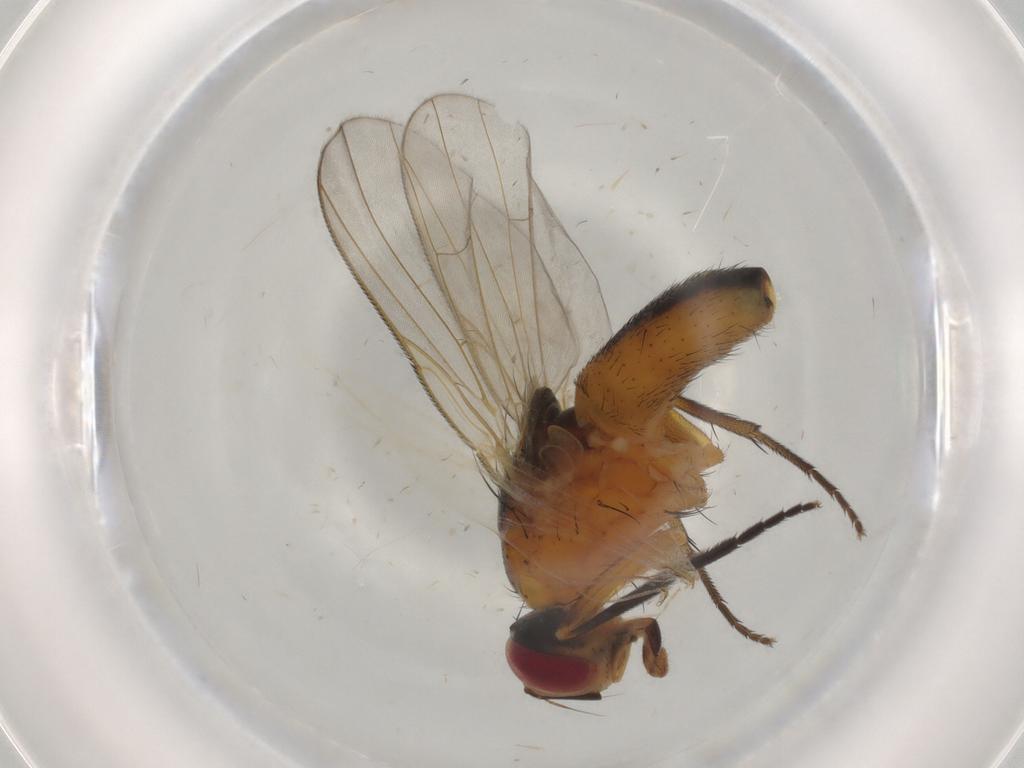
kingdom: Animalia
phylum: Arthropoda
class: Insecta
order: Diptera
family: Muscidae
